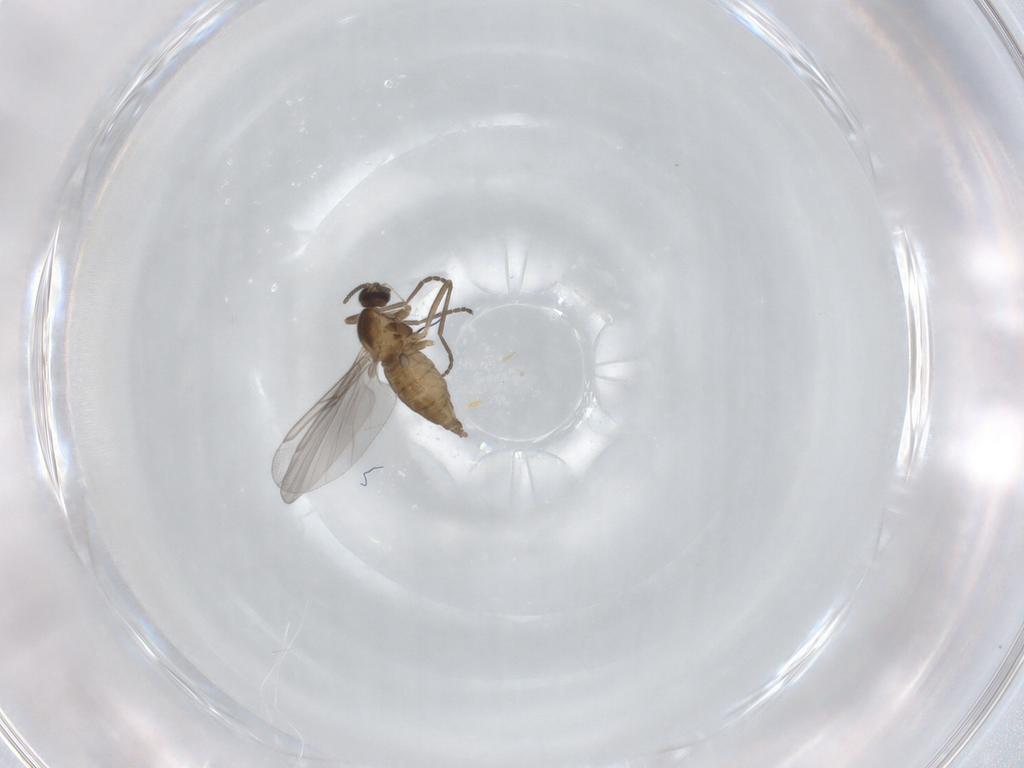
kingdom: Animalia
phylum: Arthropoda
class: Insecta
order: Diptera
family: Cecidomyiidae
